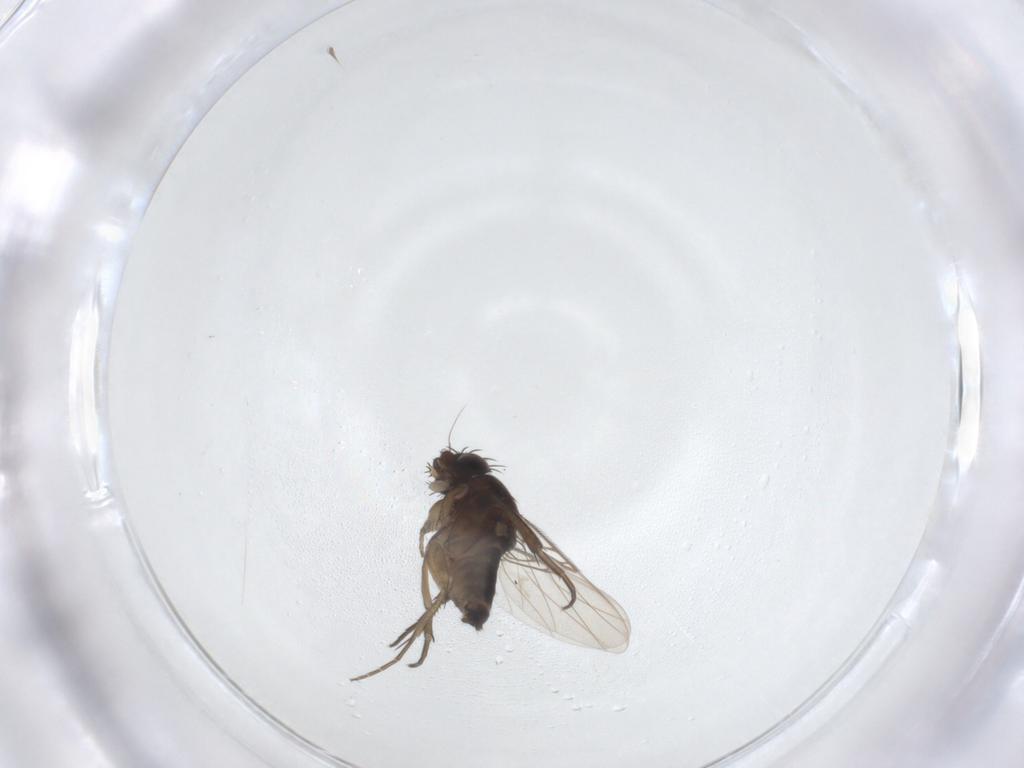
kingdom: Animalia
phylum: Arthropoda
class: Insecta
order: Diptera
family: Phoridae
